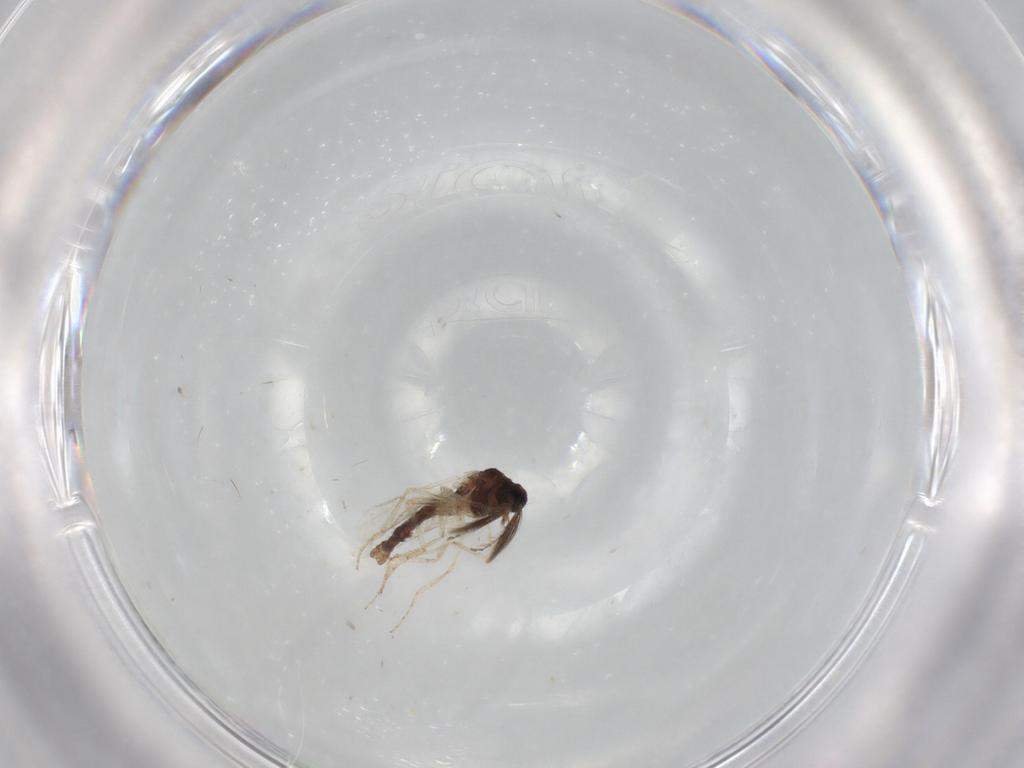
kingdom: Animalia
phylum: Arthropoda
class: Insecta
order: Diptera
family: Ceratopogonidae
